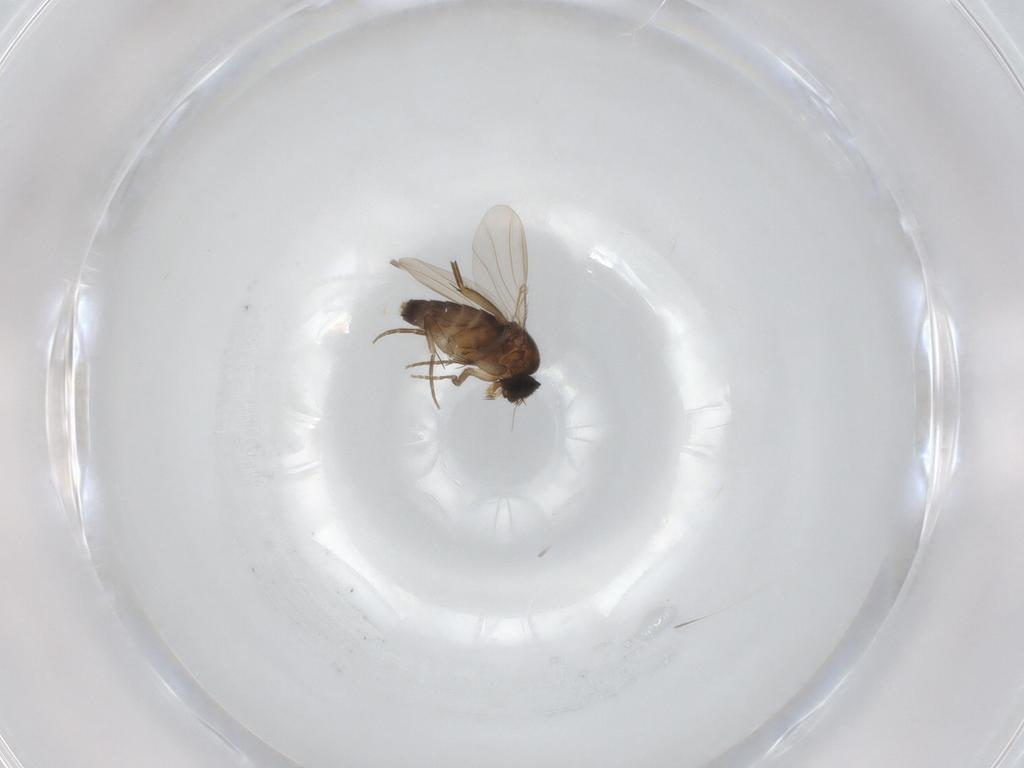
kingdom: Animalia
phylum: Arthropoda
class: Insecta
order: Diptera
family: Phoridae
